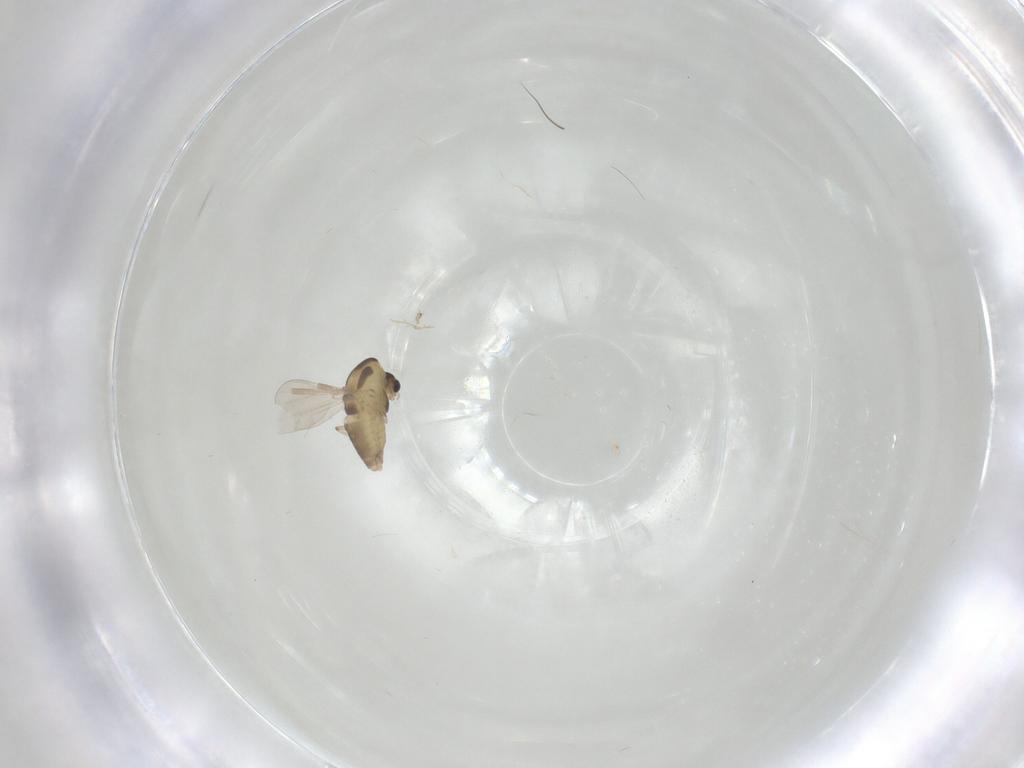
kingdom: Animalia
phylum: Arthropoda
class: Insecta
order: Diptera
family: Chironomidae
